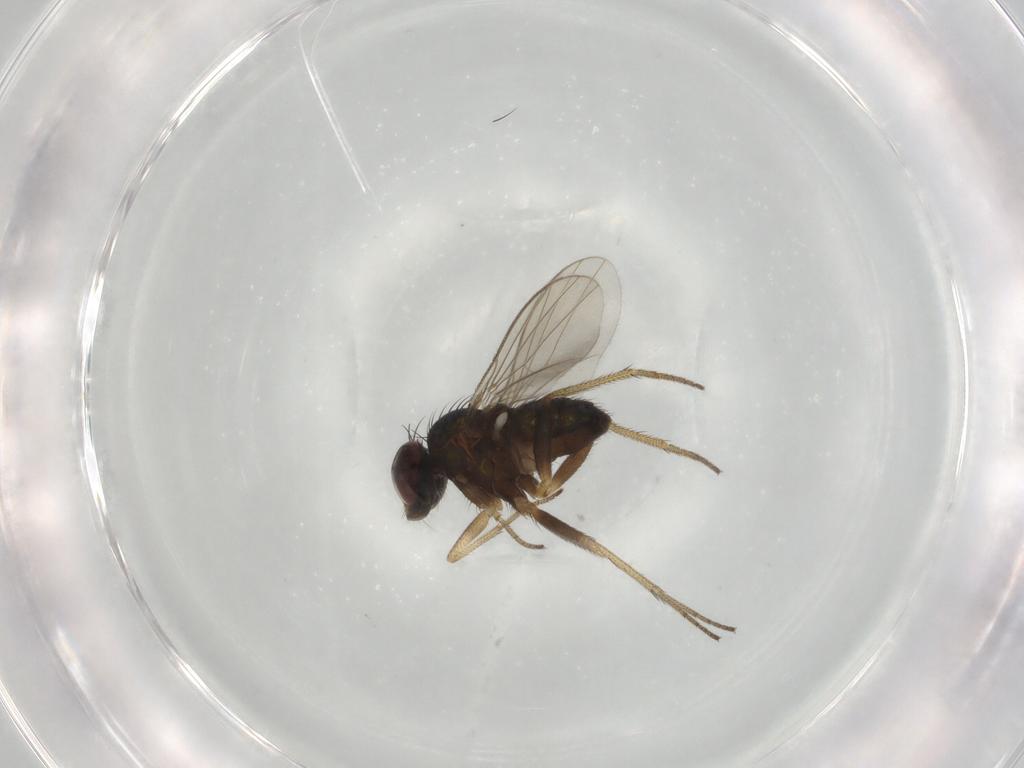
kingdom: Animalia
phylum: Arthropoda
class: Insecta
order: Diptera
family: Dolichopodidae
